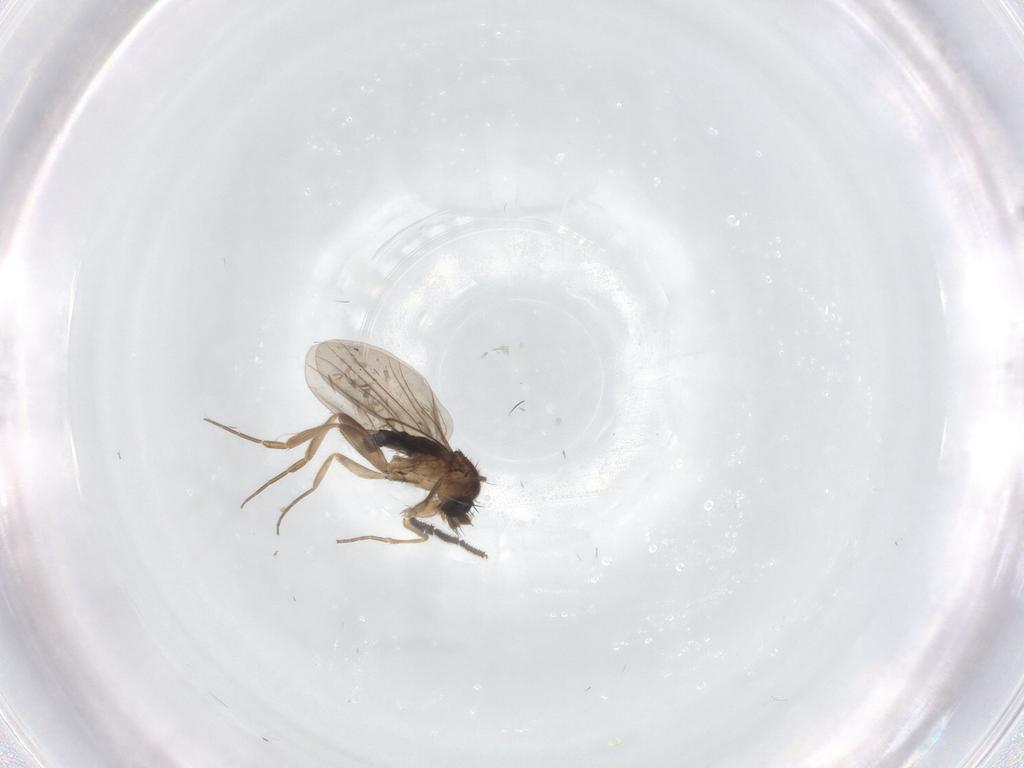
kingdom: Animalia
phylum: Arthropoda
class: Insecta
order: Diptera
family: Phoridae
